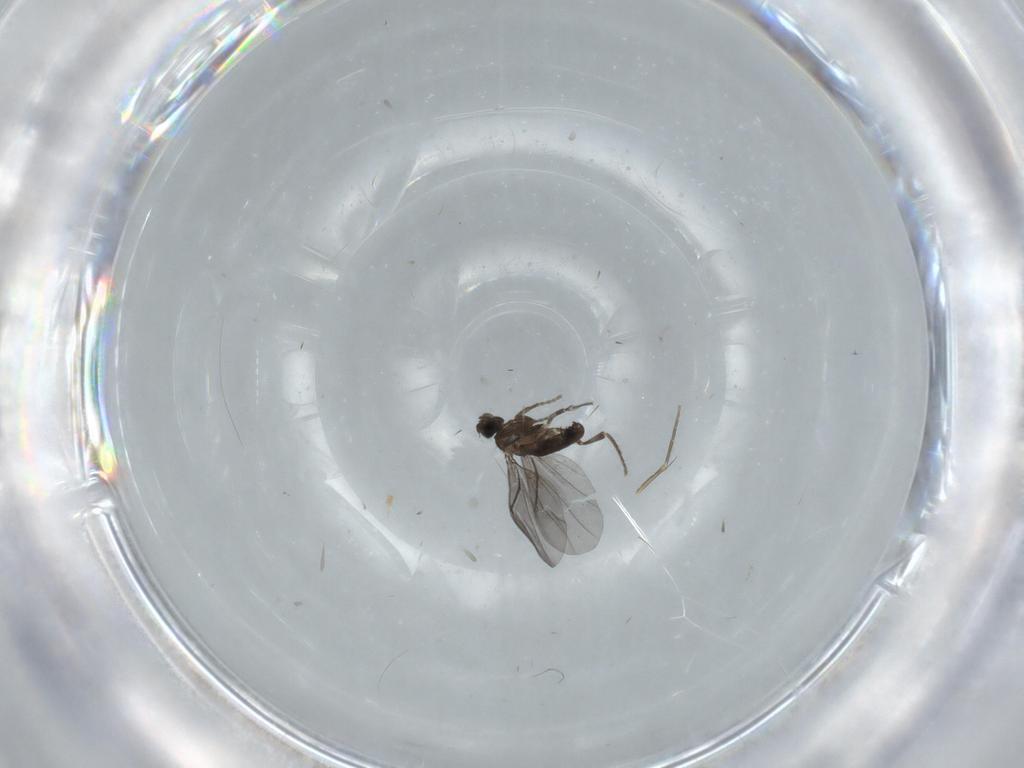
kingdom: Animalia
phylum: Arthropoda
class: Insecta
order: Diptera
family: Phoridae
